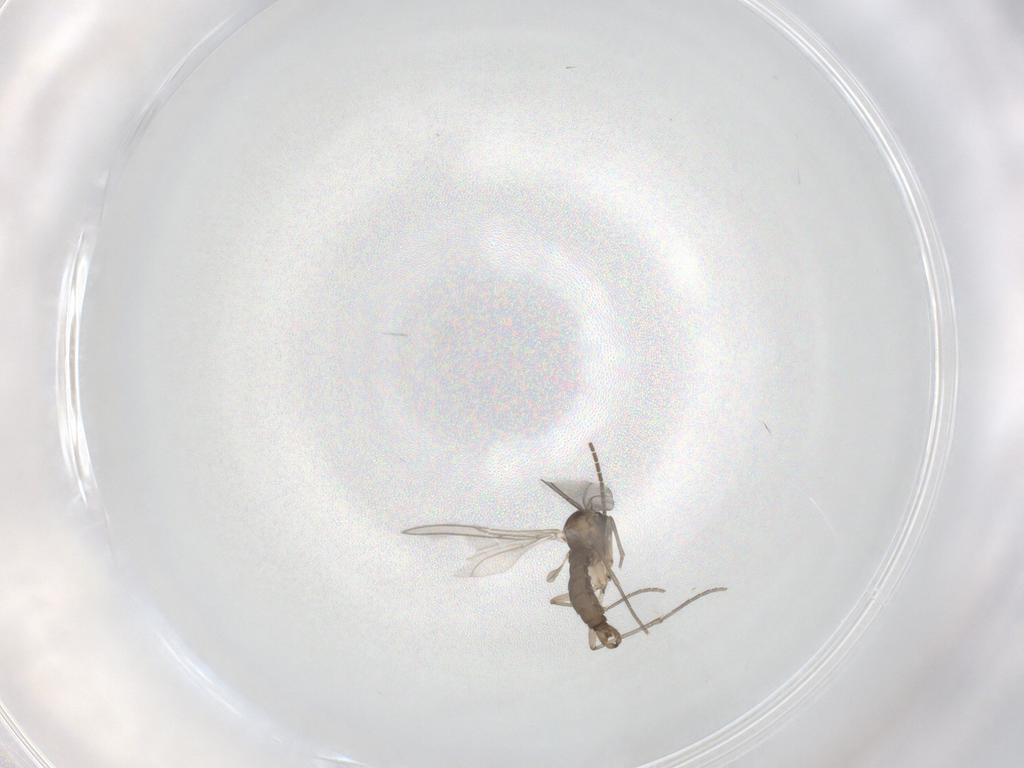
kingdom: Animalia
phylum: Arthropoda
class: Insecta
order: Diptera
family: Sciaridae
